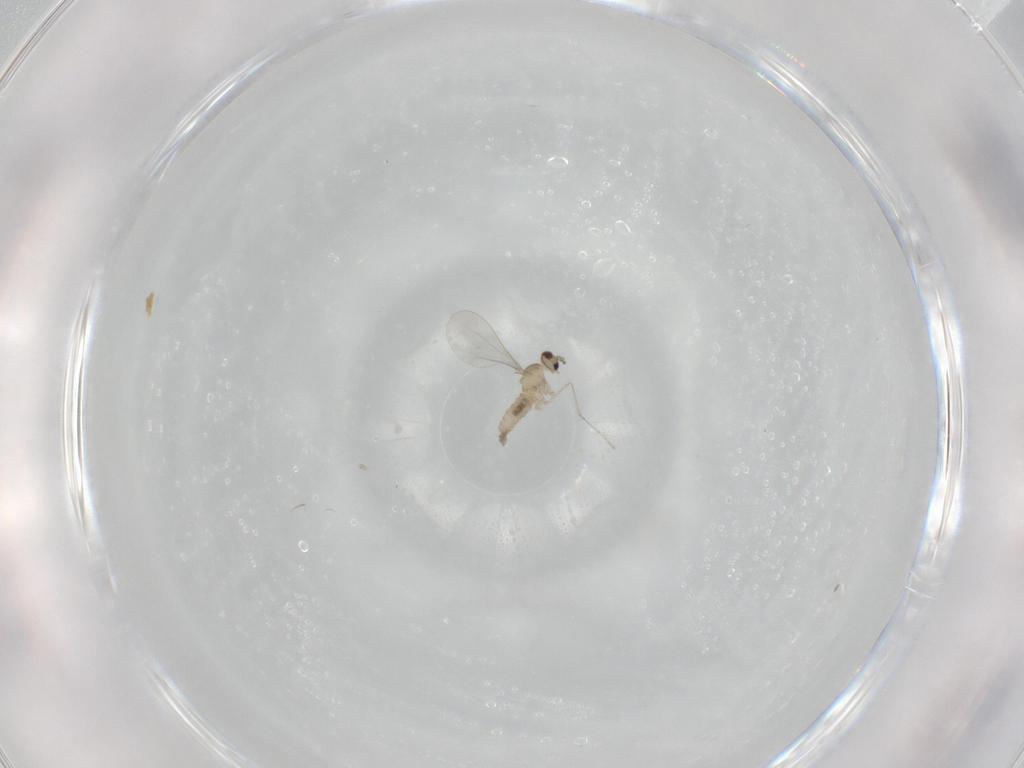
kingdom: Animalia
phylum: Arthropoda
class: Insecta
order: Diptera
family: Cecidomyiidae
